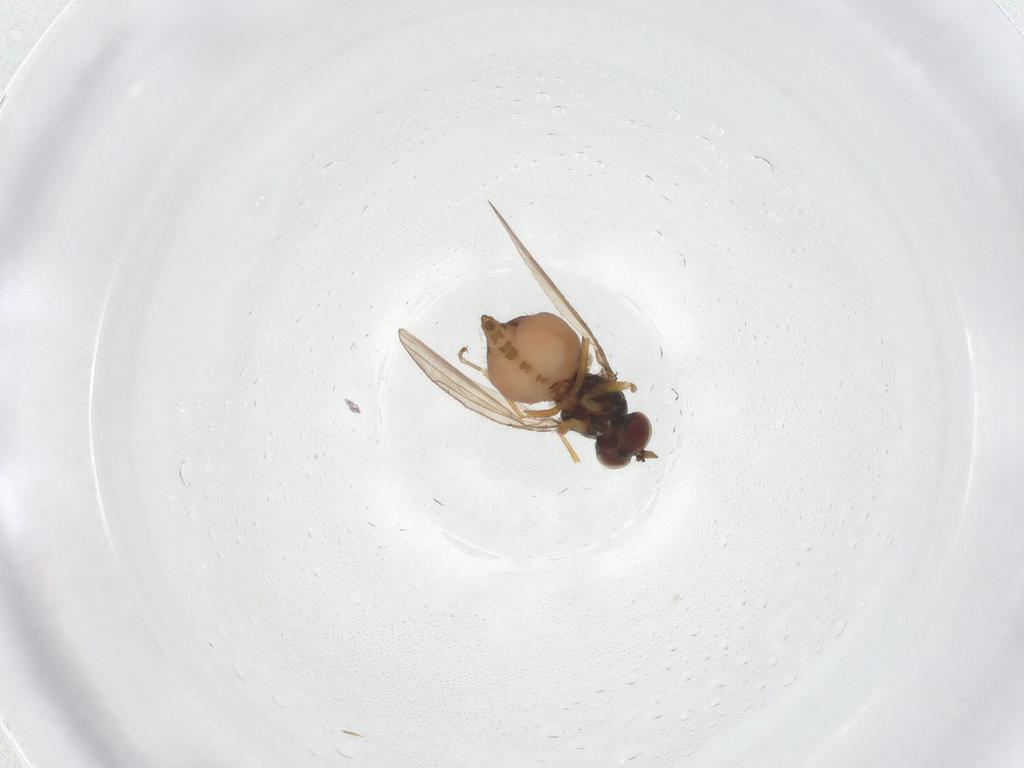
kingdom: Animalia
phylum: Arthropoda
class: Insecta
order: Diptera
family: Ephydridae
